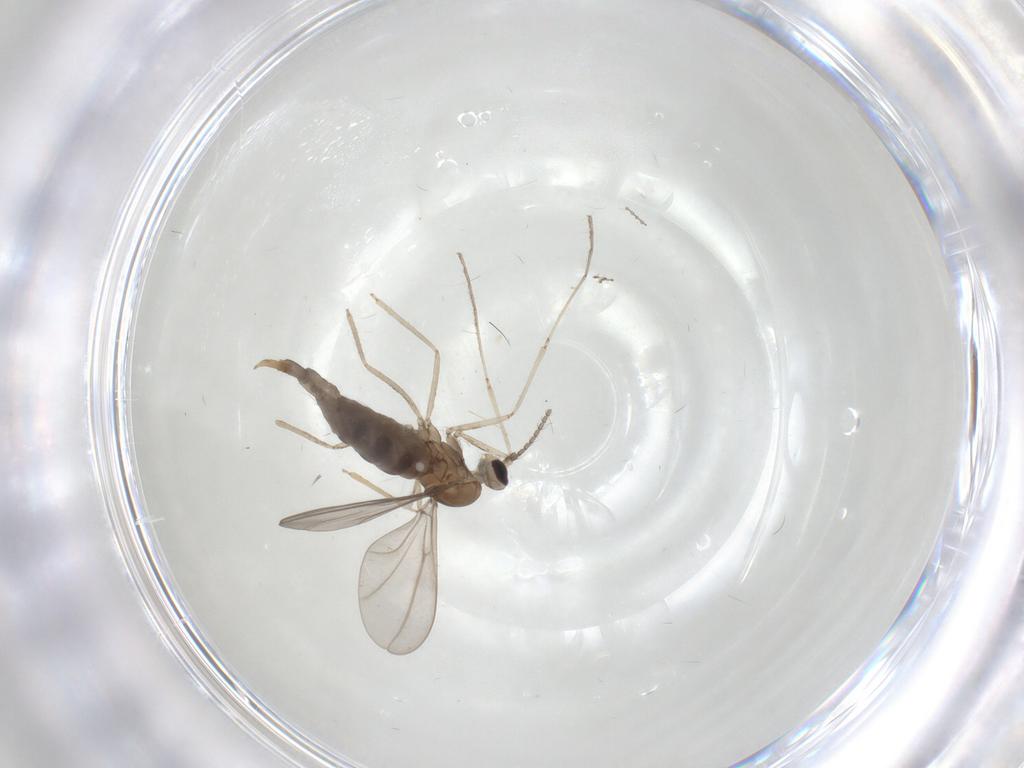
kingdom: Animalia
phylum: Arthropoda
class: Insecta
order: Diptera
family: Cecidomyiidae
